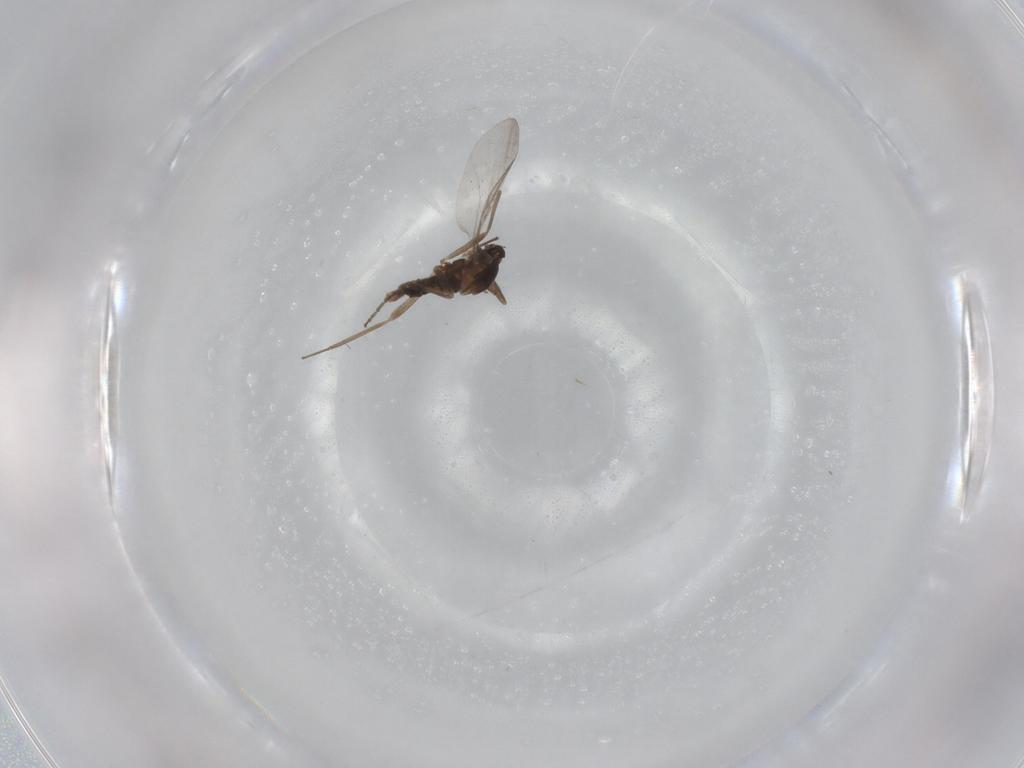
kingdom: Animalia
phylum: Arthropoda
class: Insecta
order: Diptera
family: Cecidomyiidae
